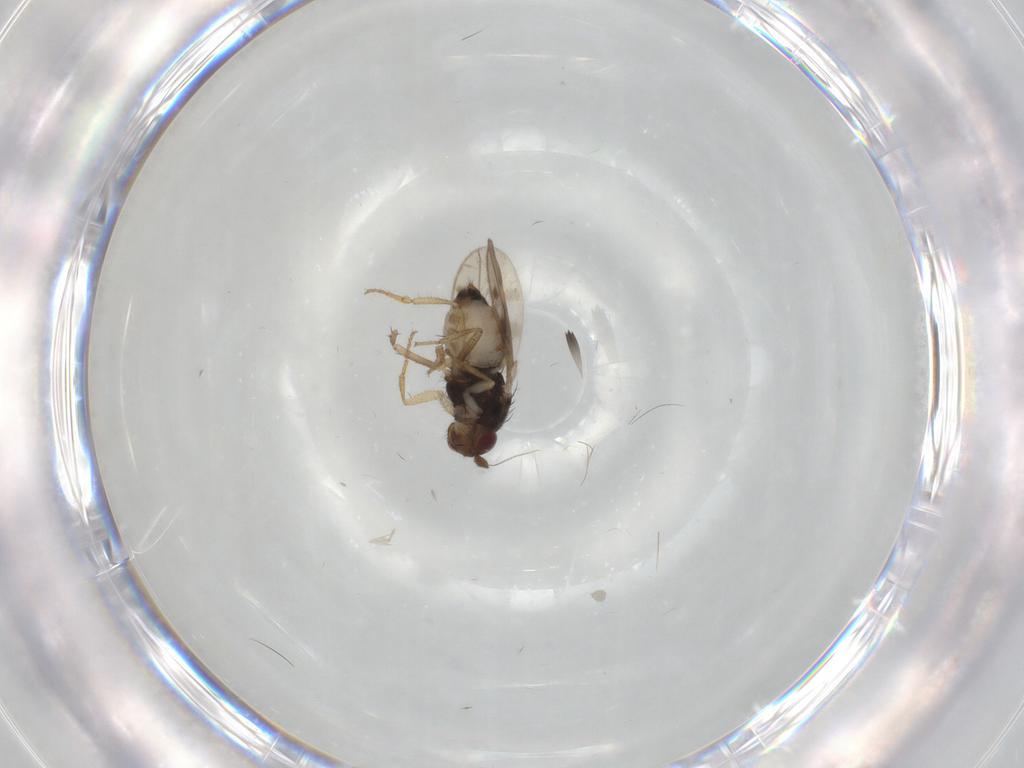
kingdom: Animalia
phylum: Arthropoda
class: Insecta
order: Diptera
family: Sphaeroceridae
